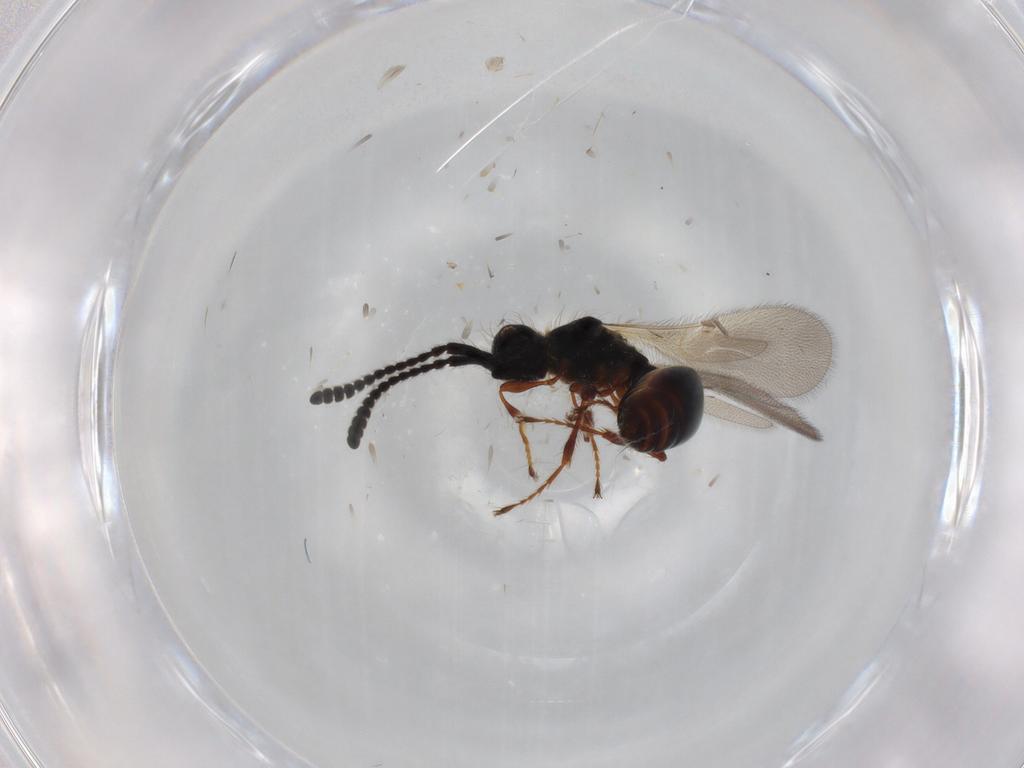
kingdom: Animalia
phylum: Arthropoda
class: Insecta
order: Hymenoptera
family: Diapriidae
